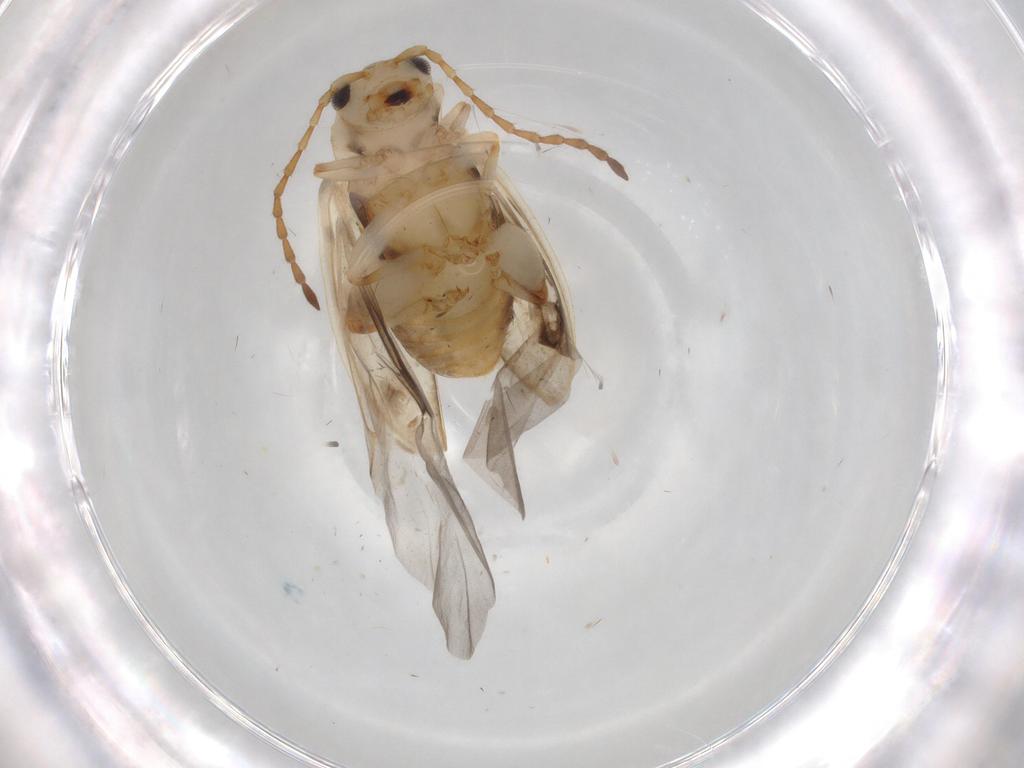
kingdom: Animalia
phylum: Arthropoda
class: Insecta
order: Coleoptera
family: Chrysomelidae
